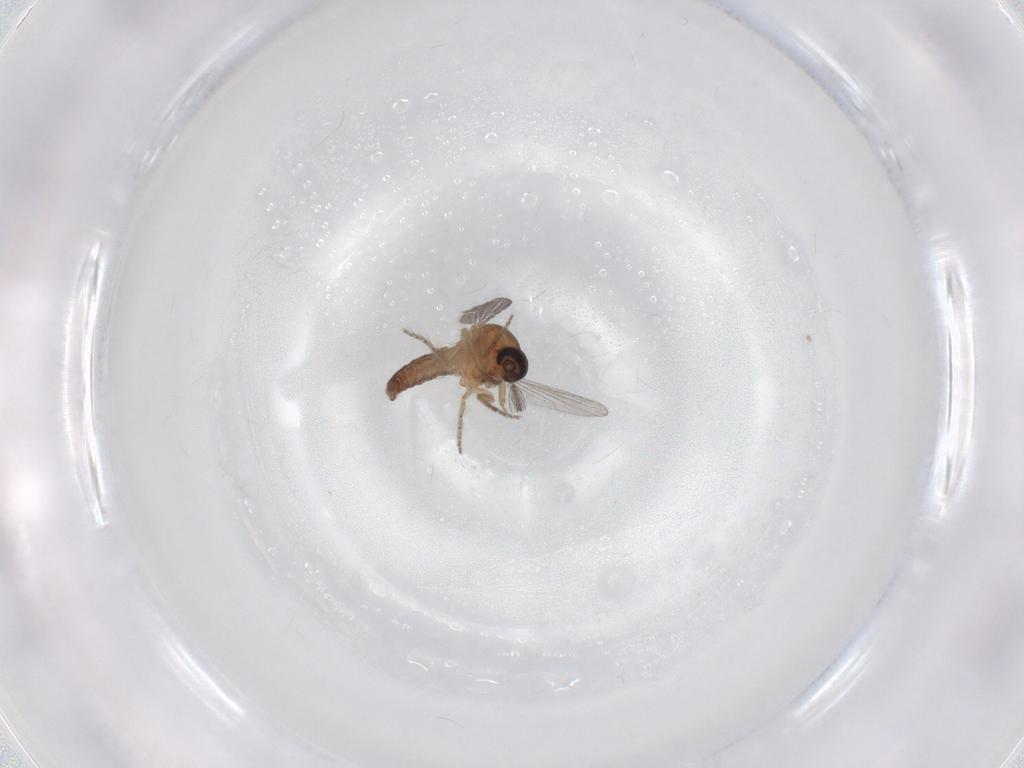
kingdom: Animalia
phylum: Arthropoda
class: Insecta
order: Diptera
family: Ceratopogonidae
